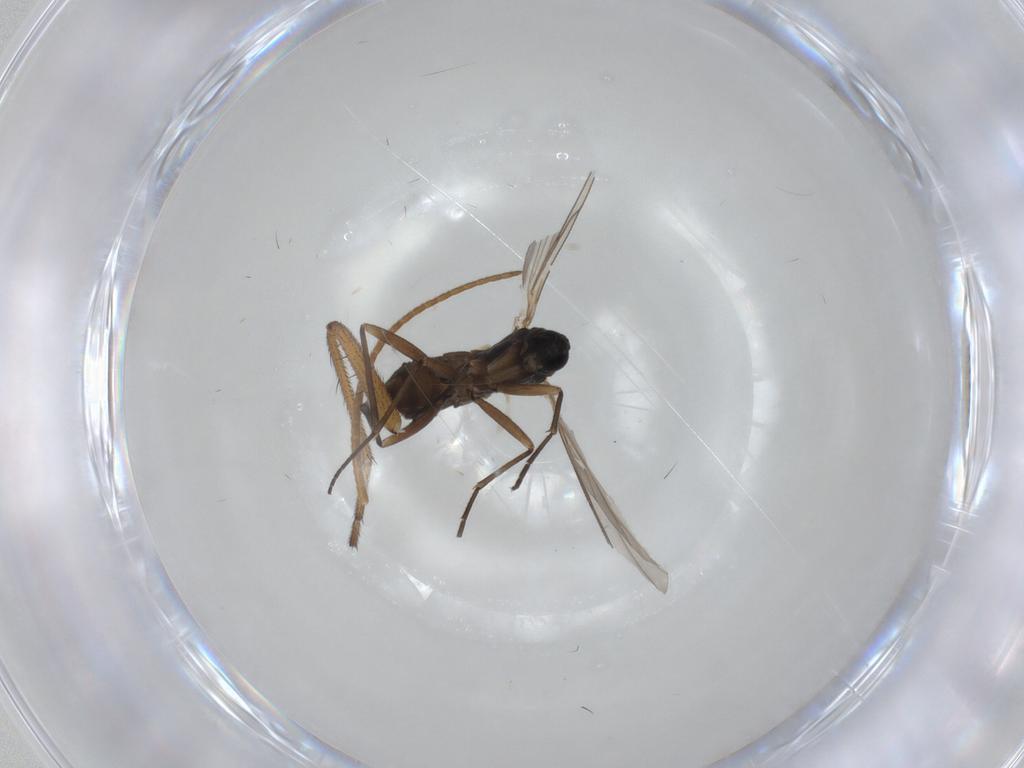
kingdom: Animalia
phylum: Arthropoda
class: Insecta
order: Diptera
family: Sciaridae
